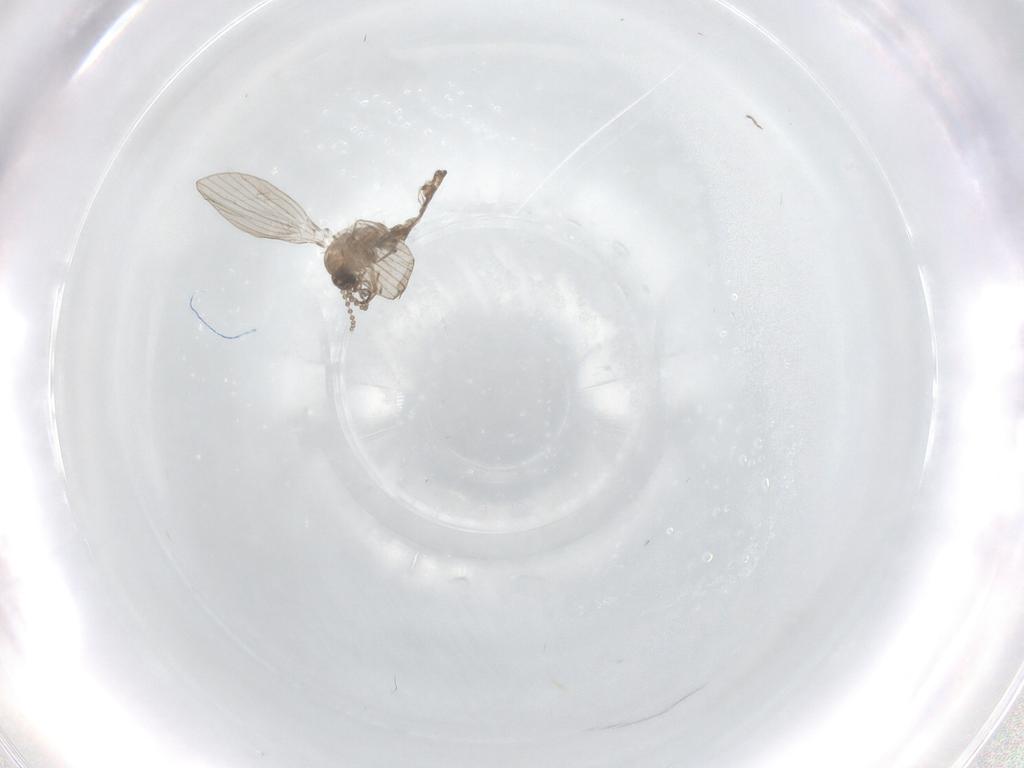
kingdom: Animalia
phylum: Arthropoda
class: Insecta
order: Diptera
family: Psychodidae
